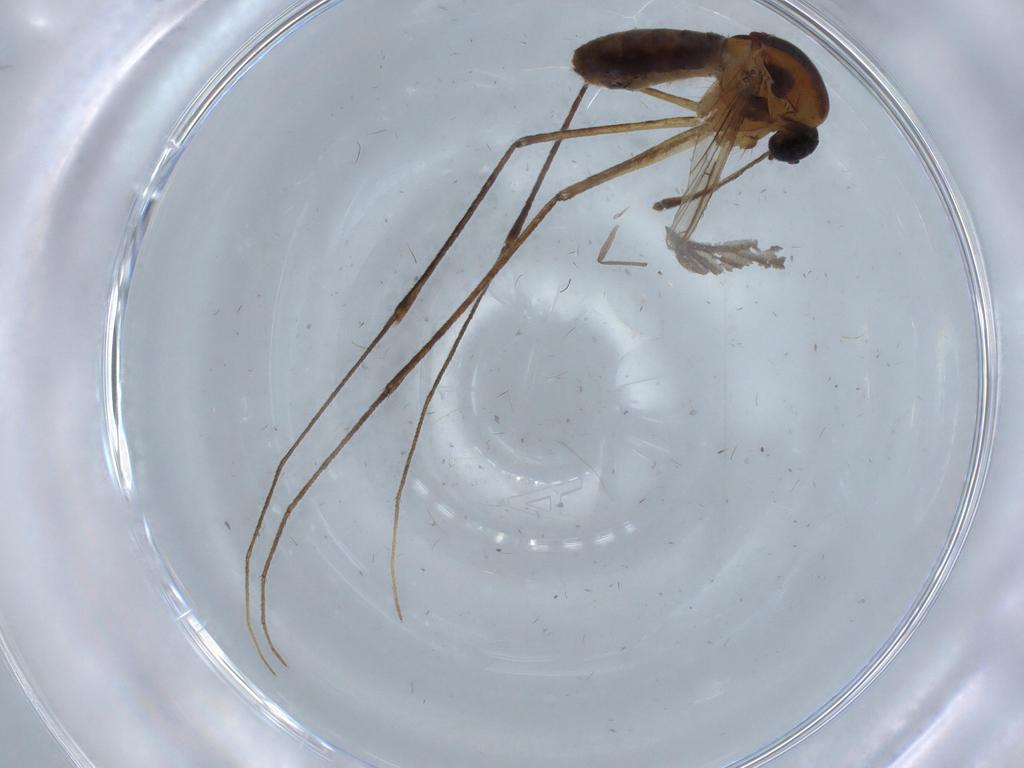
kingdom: Animalia
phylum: Arthropoda
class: Insecta
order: Diptera
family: Cecidomyiidae
